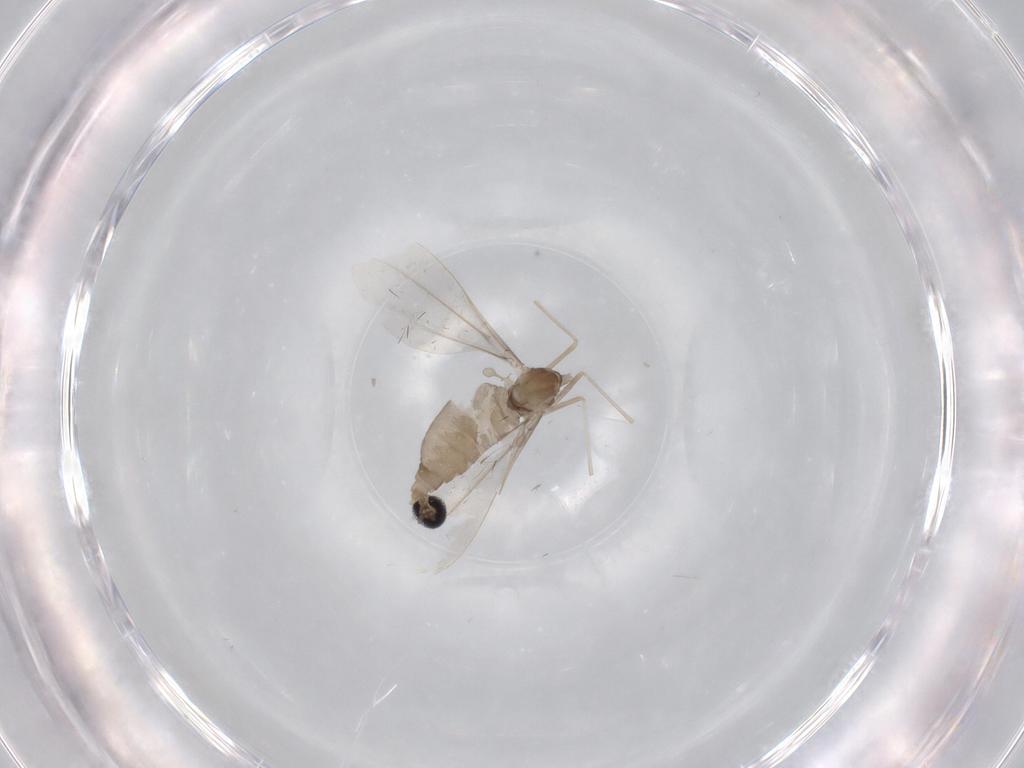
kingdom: Animalia
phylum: Arthropoda
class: Insecta
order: Diptera
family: Cecidomyiidae
